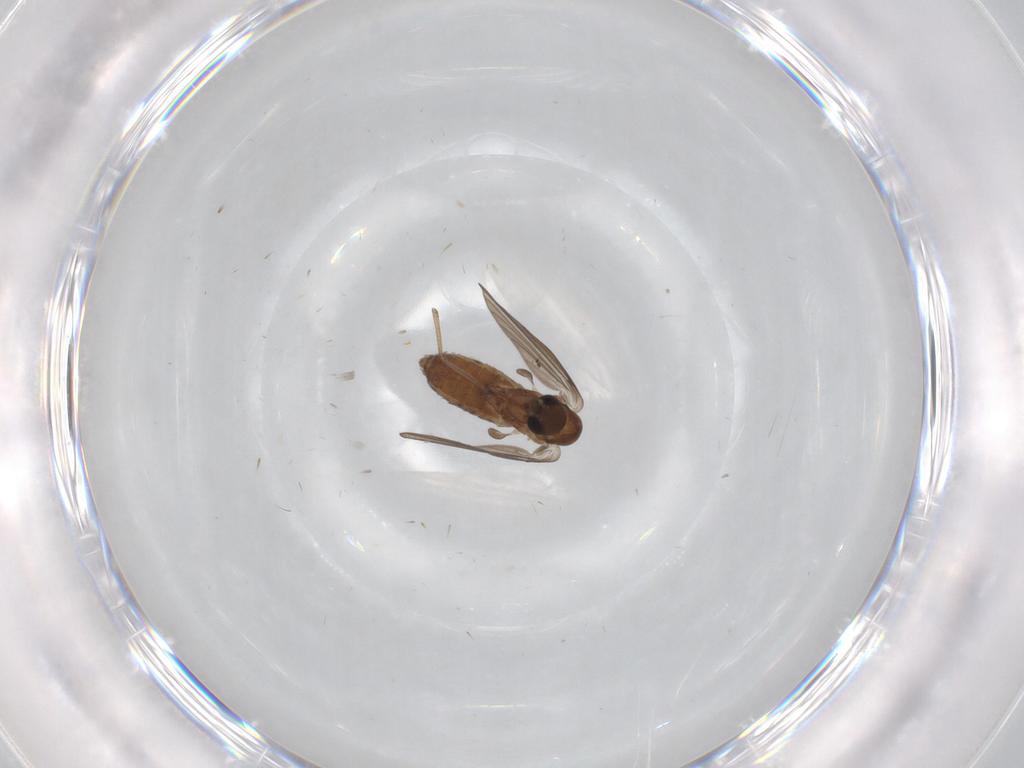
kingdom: Animalia
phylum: Arthropoda
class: Insecta
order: Diptera
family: Psychodidae
